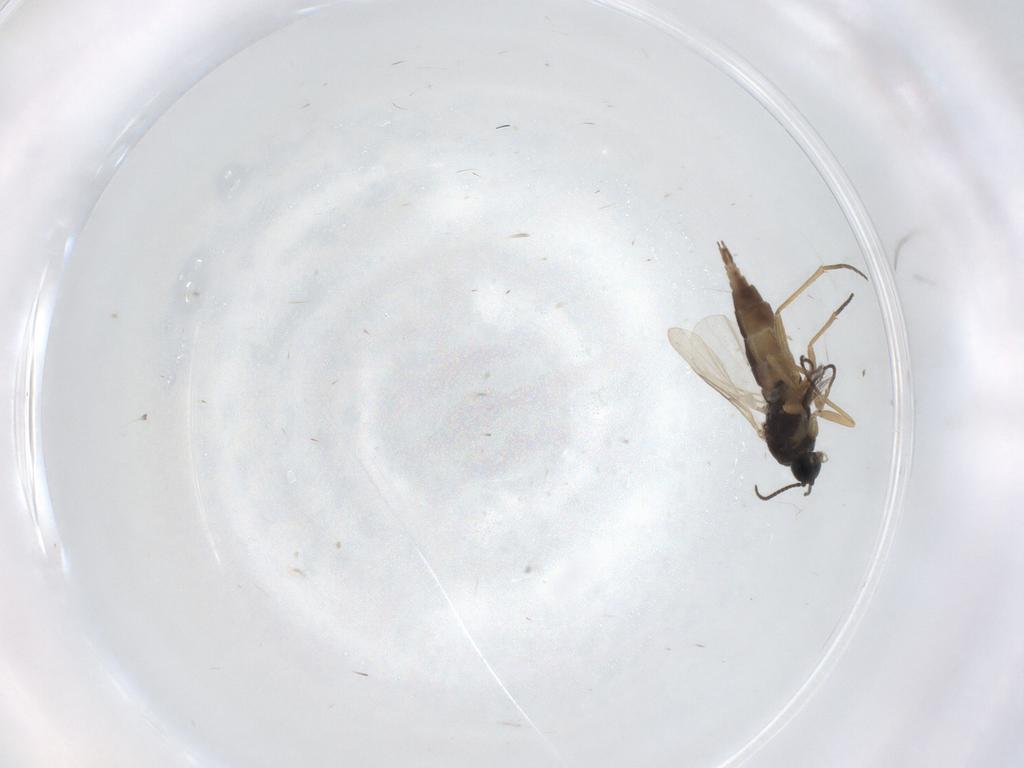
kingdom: Animalia
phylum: Arthropoda
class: Insecta
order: Diptera
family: Sciaridae
